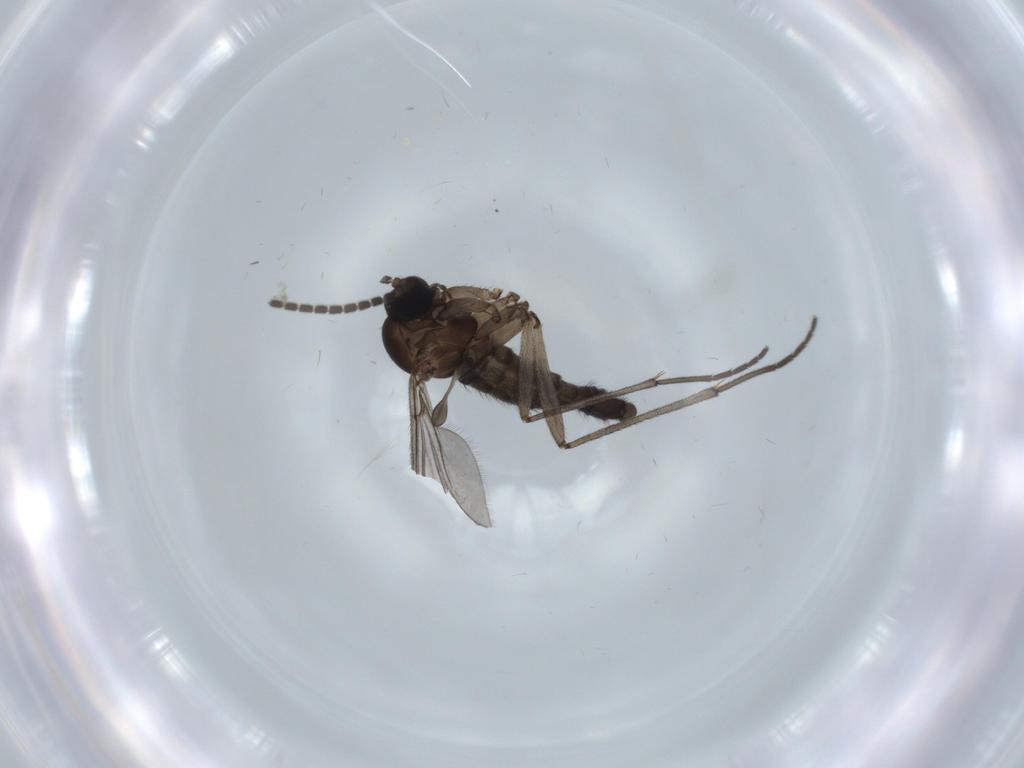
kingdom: Animalia
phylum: Arthropoda
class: Insecta
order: Diptera
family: Sciaridae
